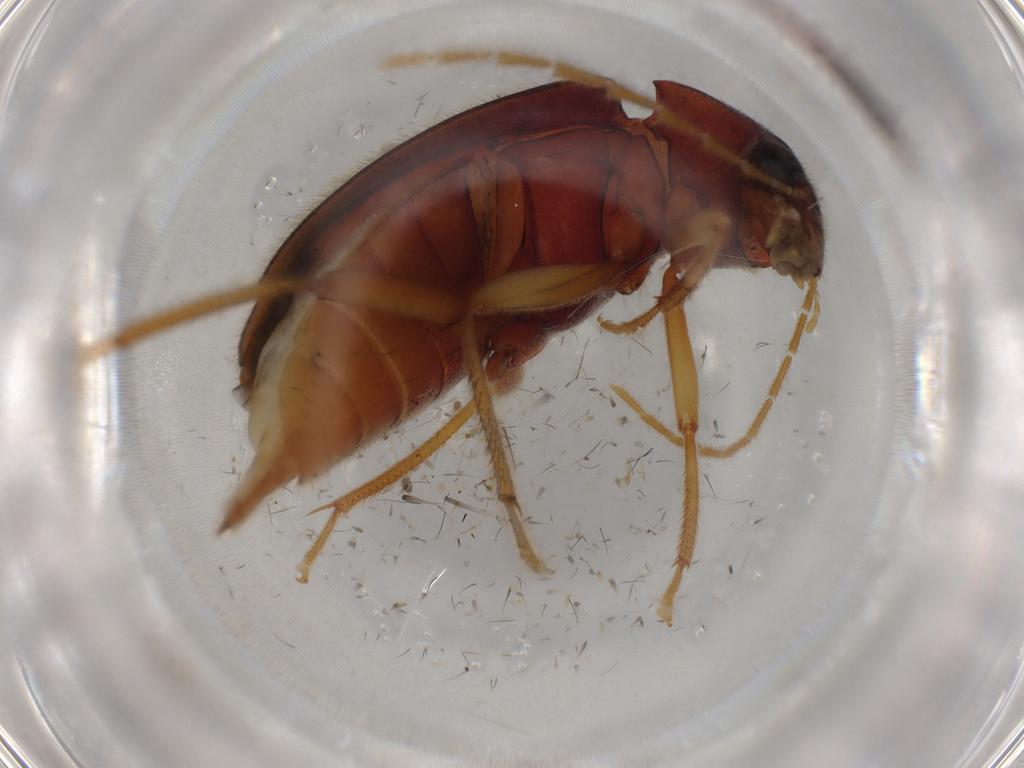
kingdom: Animalia
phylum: Arthropoda
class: Insecta
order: Coleoptera
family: Ptilodactylidae
